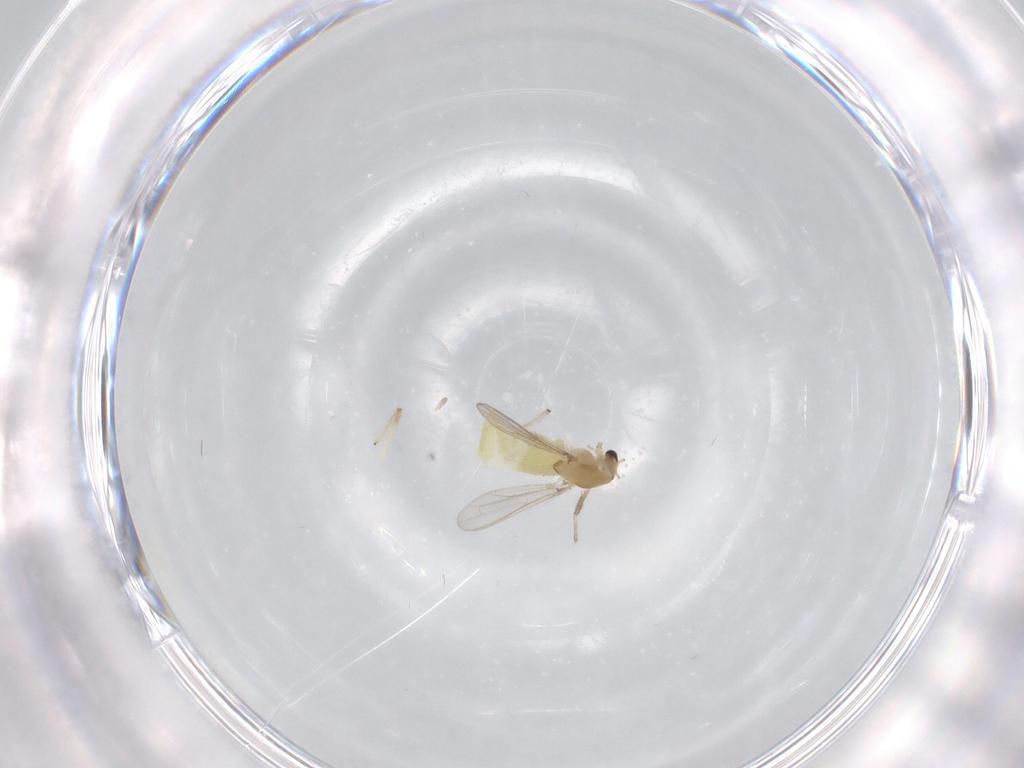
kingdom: Animalia
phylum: Arthropoda
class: Insecta
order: Diptera
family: Chironomidae
